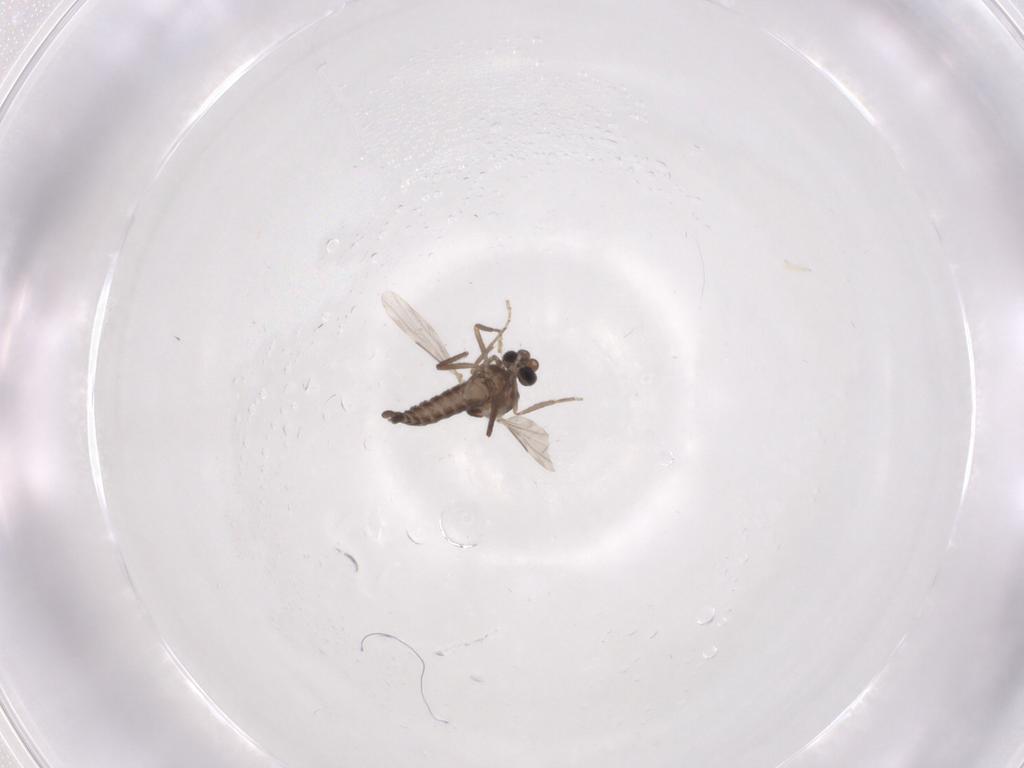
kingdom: Animalia
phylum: Arthropoda
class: Insecta
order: Diptera
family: Ceratopogonidae
